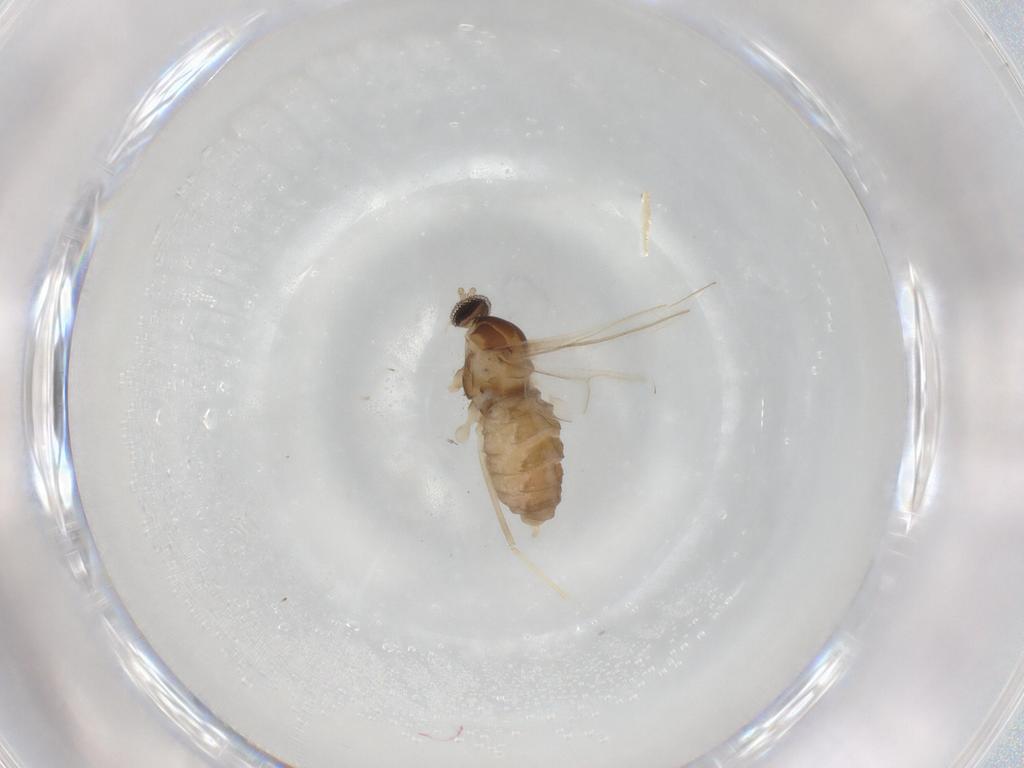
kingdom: Animalia
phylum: Arthropoda
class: Insecta
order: Diptera
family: Cecidomyiidae
